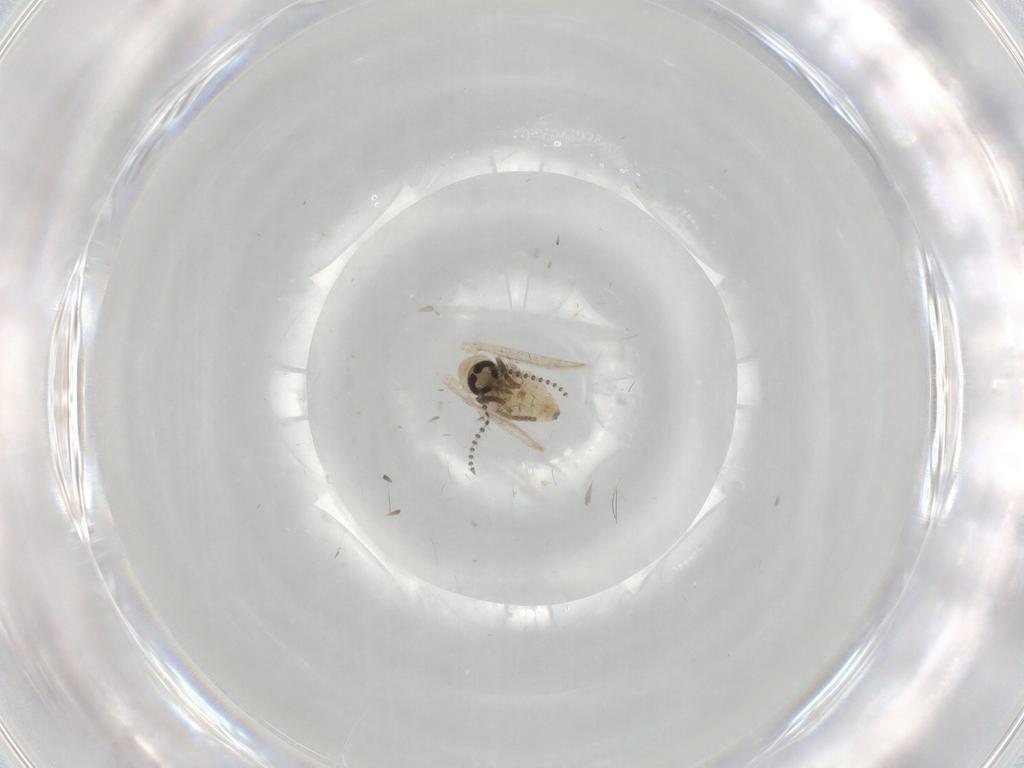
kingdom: Animalia
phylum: Arthropoda
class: Insecta
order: Diptera
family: Psychodidae
